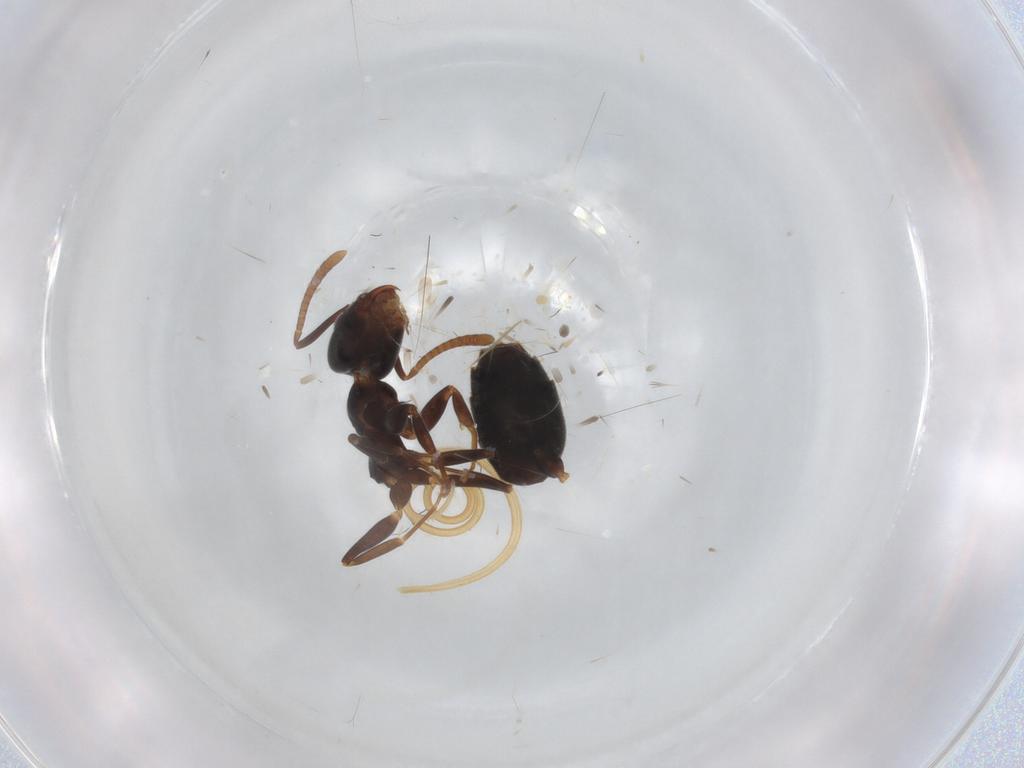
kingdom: Animalia
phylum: Arthropoda
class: Insecta
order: Hymenoptera
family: Formicidae
